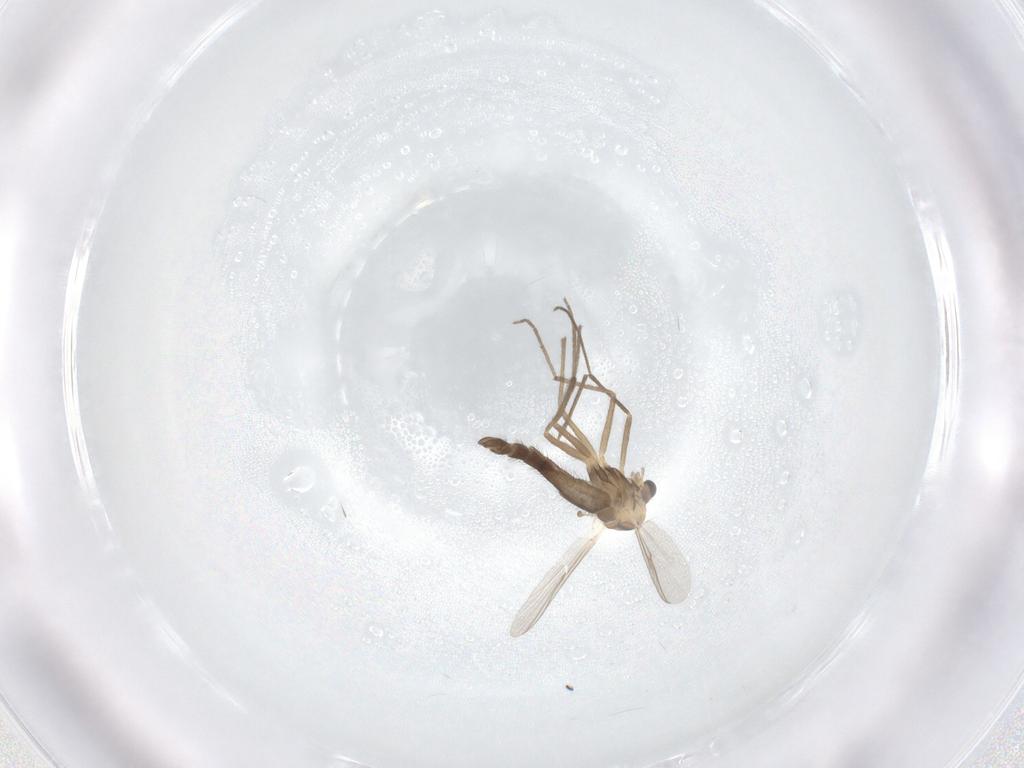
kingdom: Animalia
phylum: Arthropoda
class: Insecta
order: Diptera
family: Chironomidae
